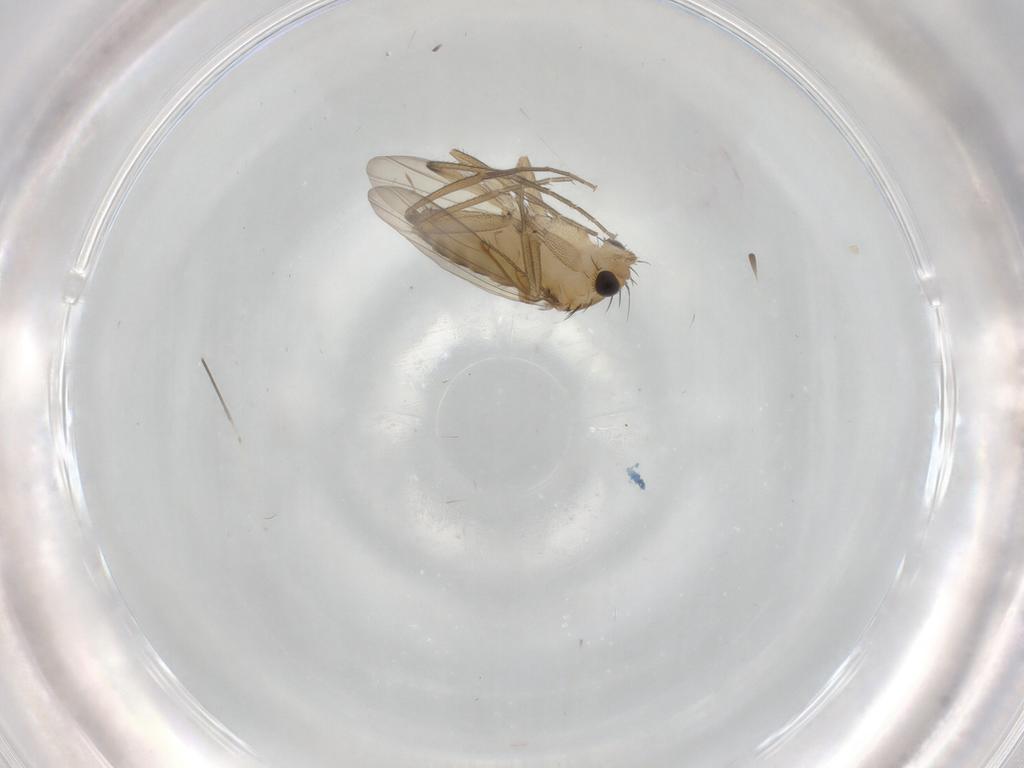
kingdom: Animalia
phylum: Arthropoda
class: Insecta
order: Diptera
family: Phoridae
